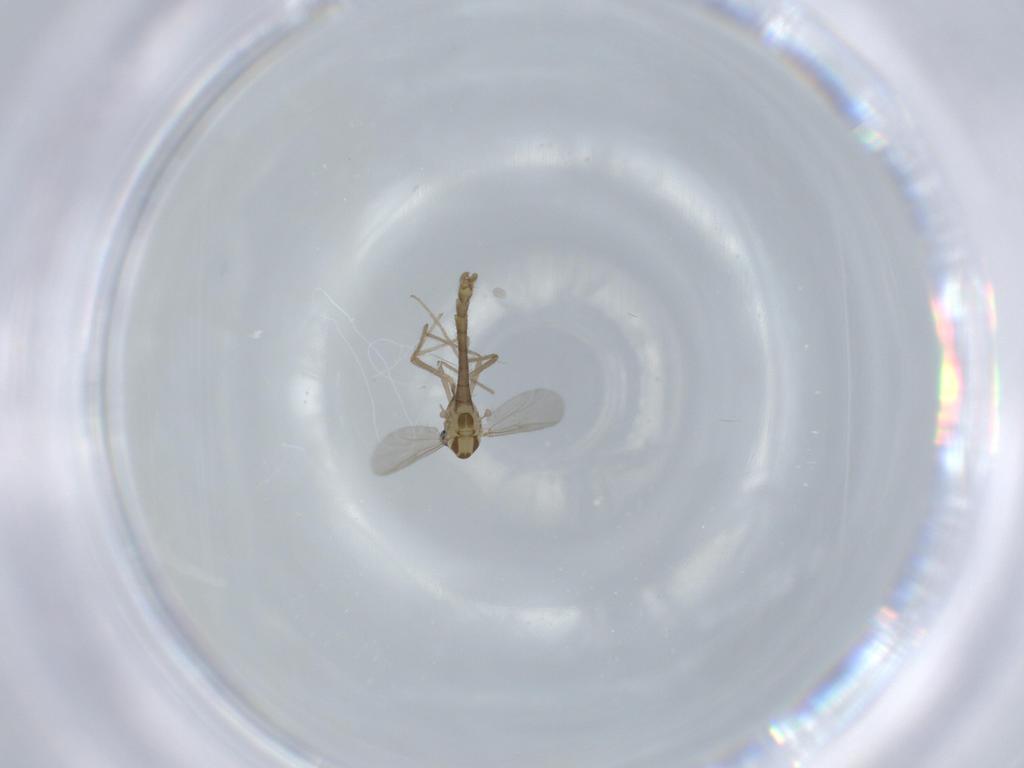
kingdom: Animalia
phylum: Arthropoda
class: Insecta
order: Diptera
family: Chironomidae
